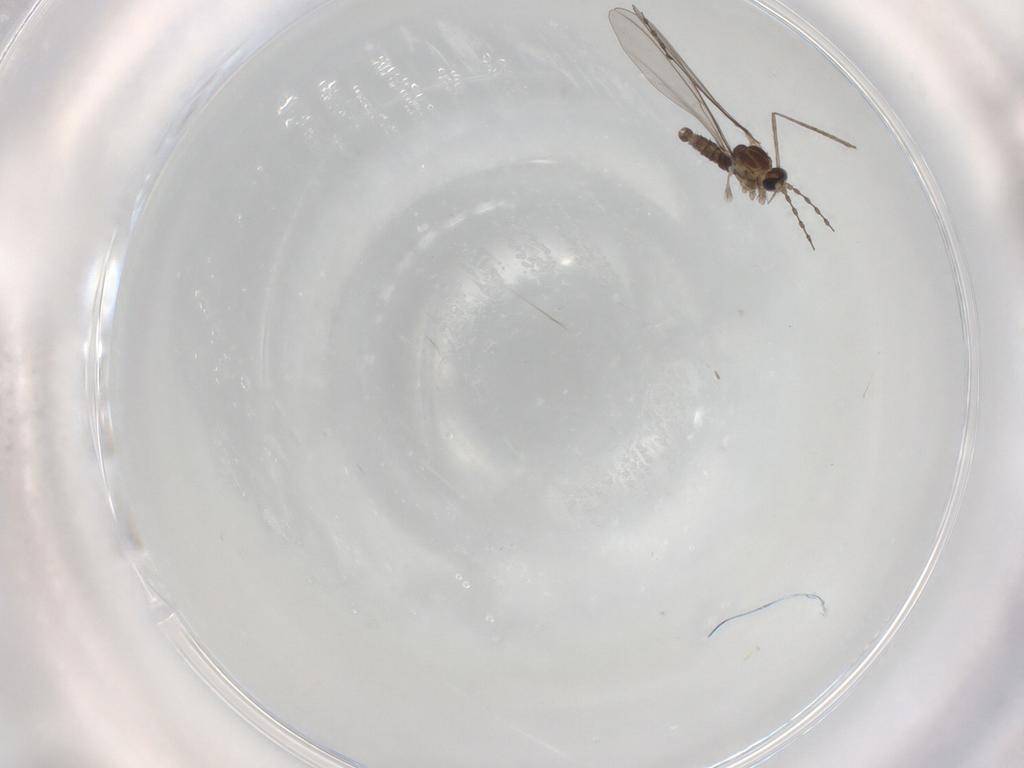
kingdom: Animalia
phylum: Arthropoda
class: Insecta
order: Diptera
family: Cecidomyiidae
